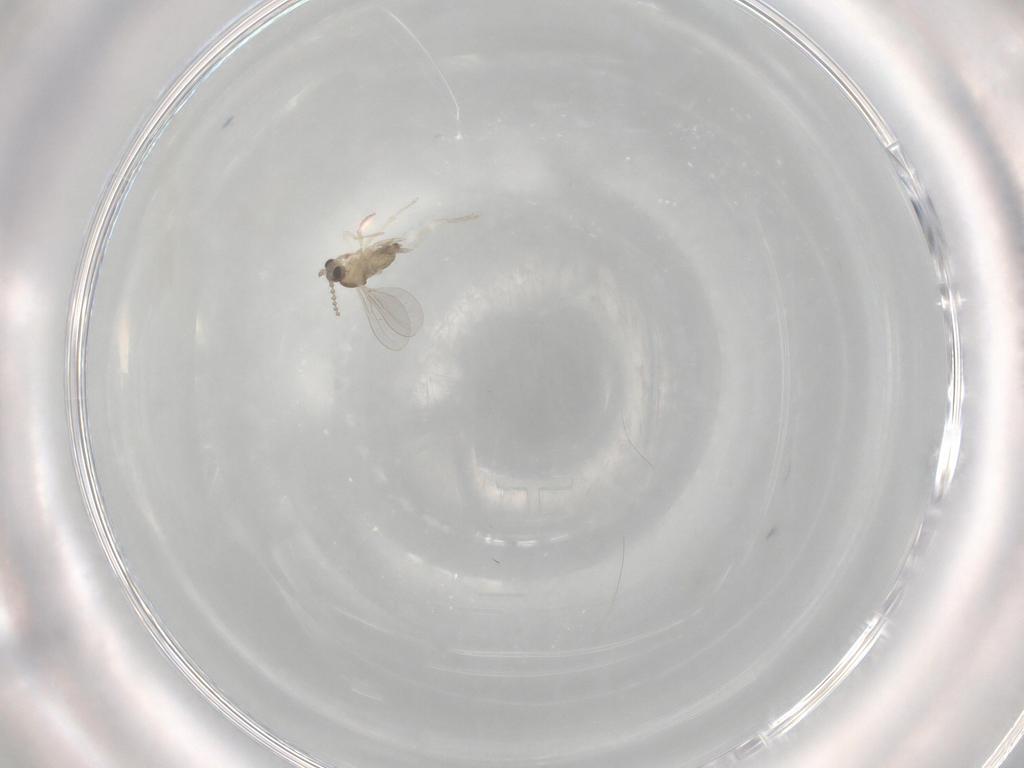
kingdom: Animalia
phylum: Arthropoda
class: Insecta
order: Diptera
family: Cecidomyiidae
